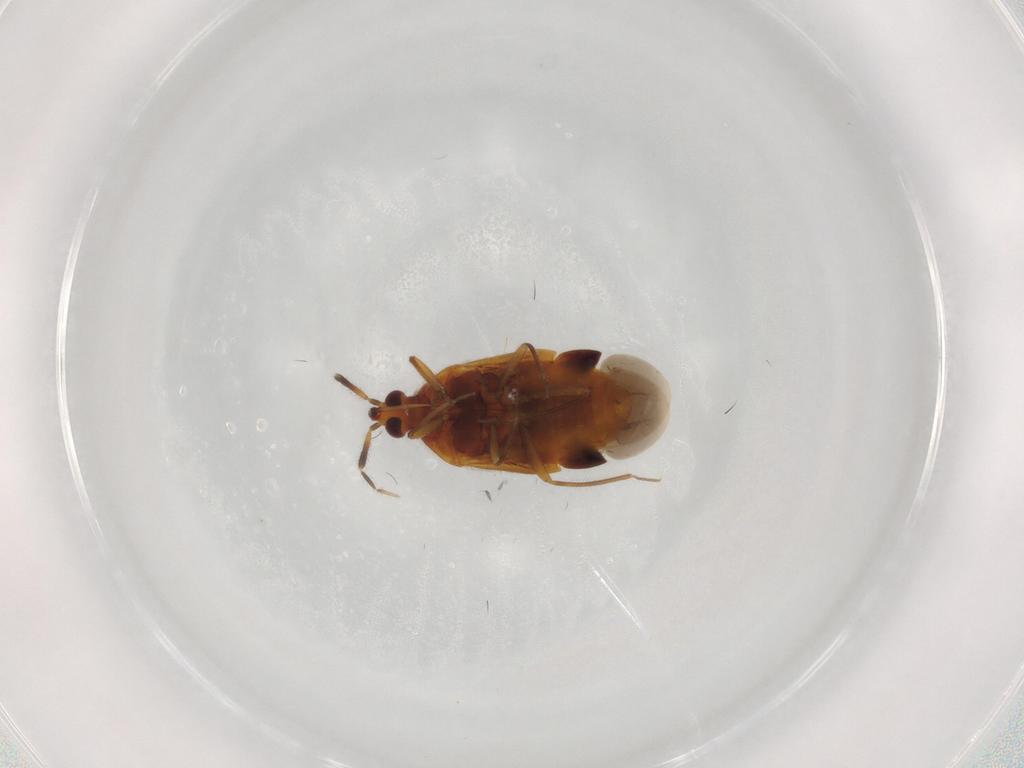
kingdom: Animalia
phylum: Arthropoda
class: Insecta
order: Hemiptera
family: Anthocoridae
